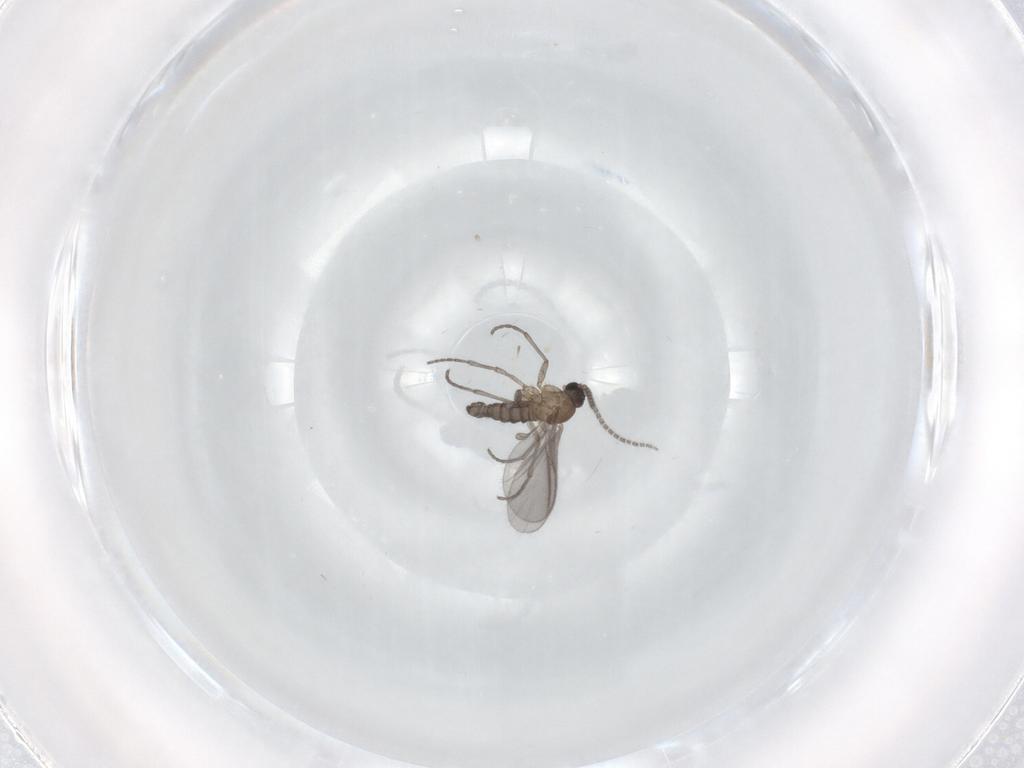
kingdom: Animalia
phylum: Arthropoda
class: Insecta
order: Diptera
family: Sciaridae
